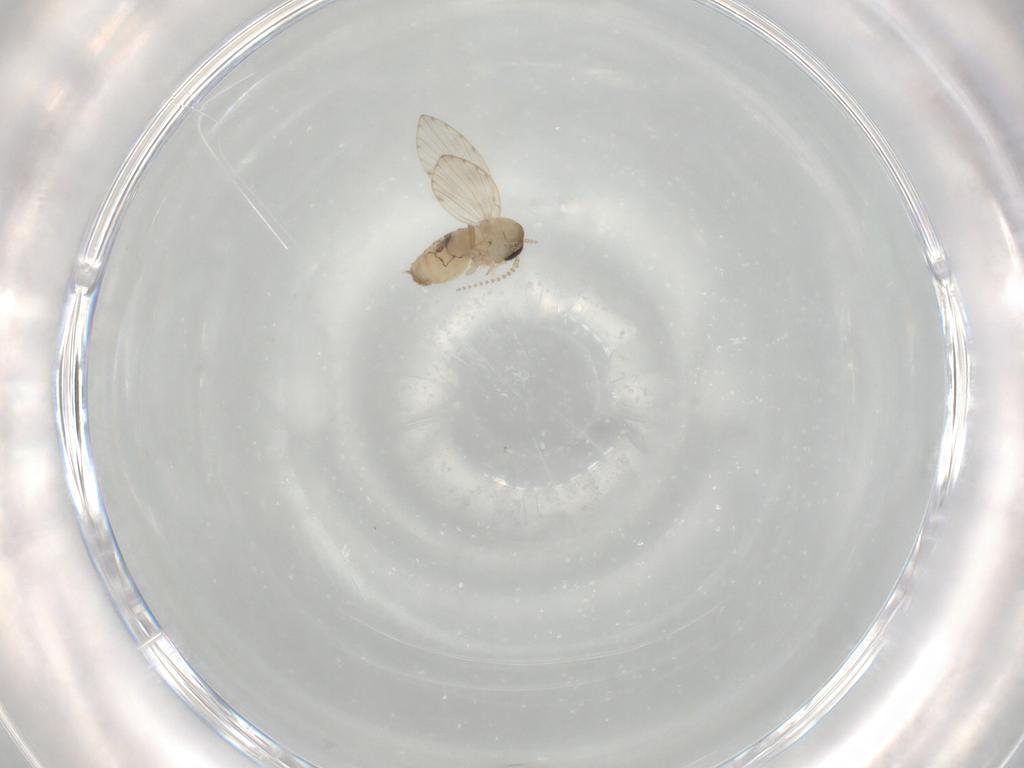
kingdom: Animalia
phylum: Arthropoda
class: Insecta
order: Diptera
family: Psychodidae
